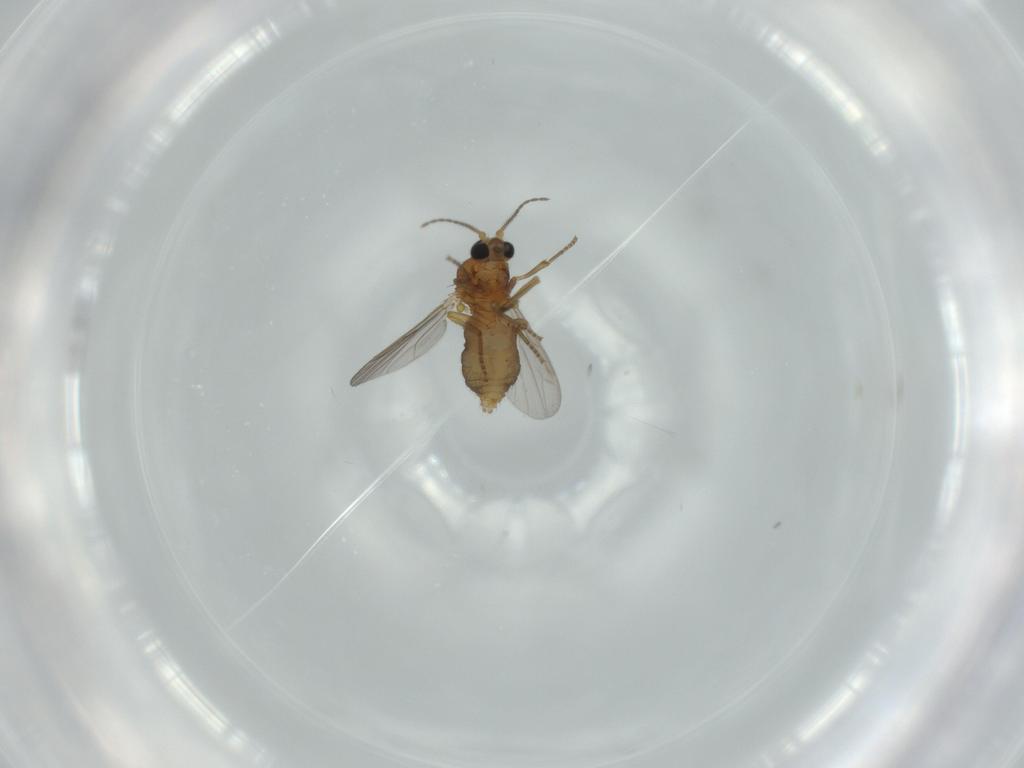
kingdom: Animalia
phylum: Arthropoda
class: Insecta
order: Diptera
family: Ceratopogonidae
